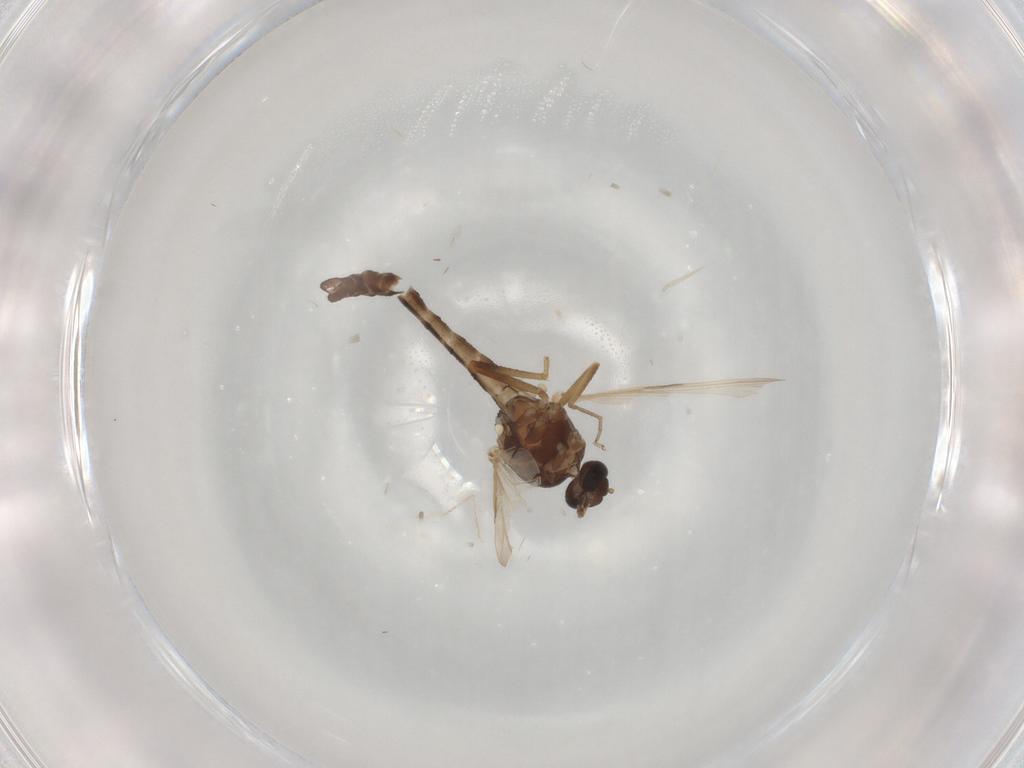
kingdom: Animalia
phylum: Arthropoda
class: Insecta
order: Diptera
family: Ceratopogonidae
